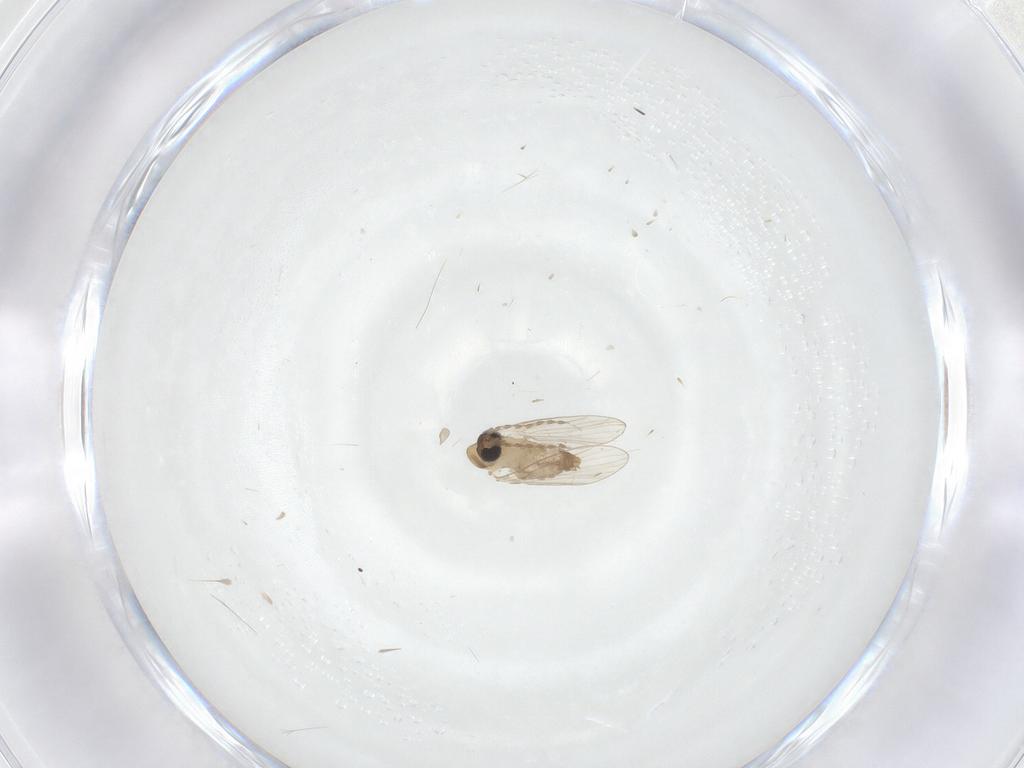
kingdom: Animalia
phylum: Arthropoda
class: Insecta
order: Diptera
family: Psychodidae
